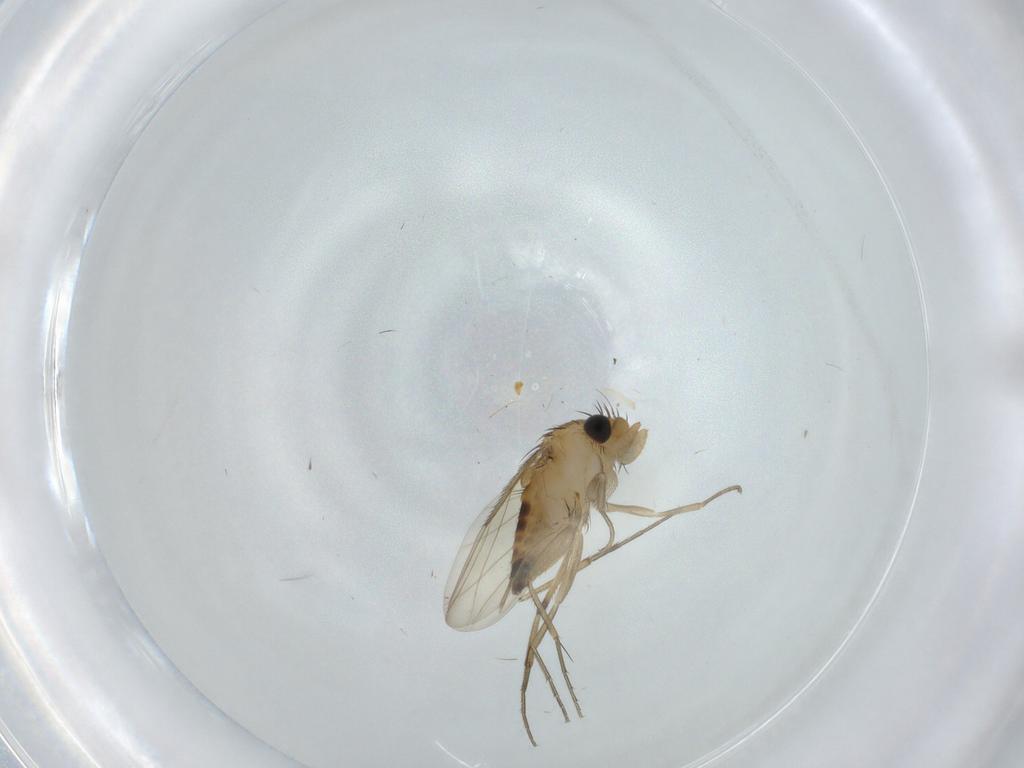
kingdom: Animalia
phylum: Arthropoda
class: Insecta
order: Diptera
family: Phoridae
